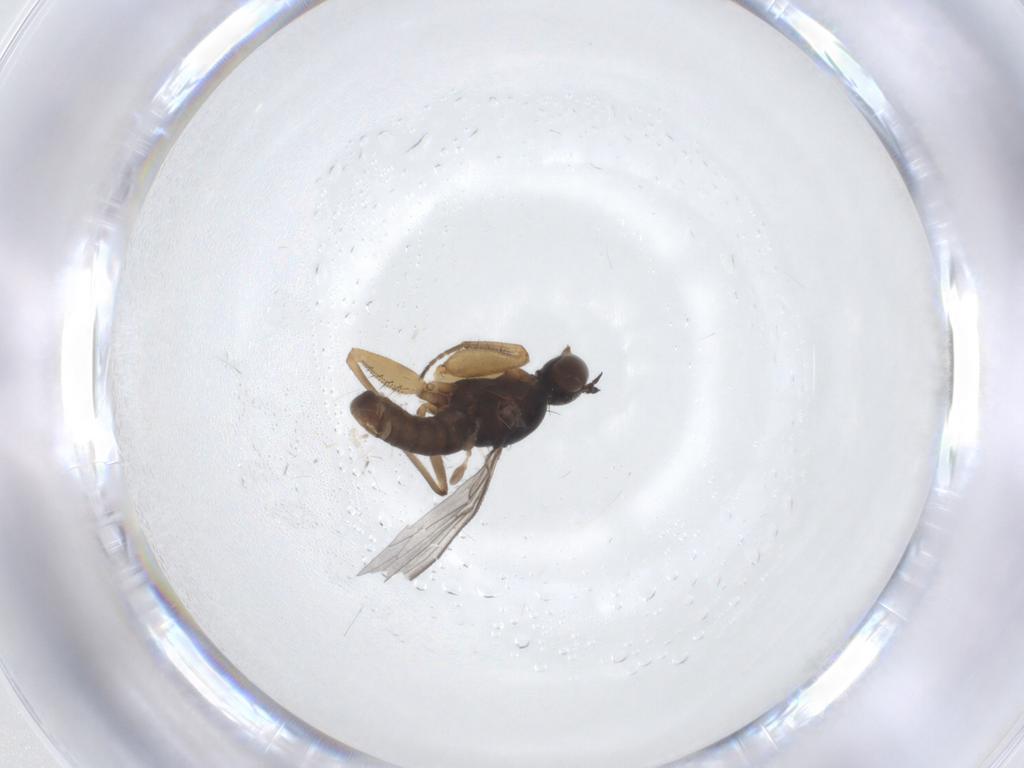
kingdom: Animalia
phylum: Arthropoda
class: Insecta
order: Diptera
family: Empididae
